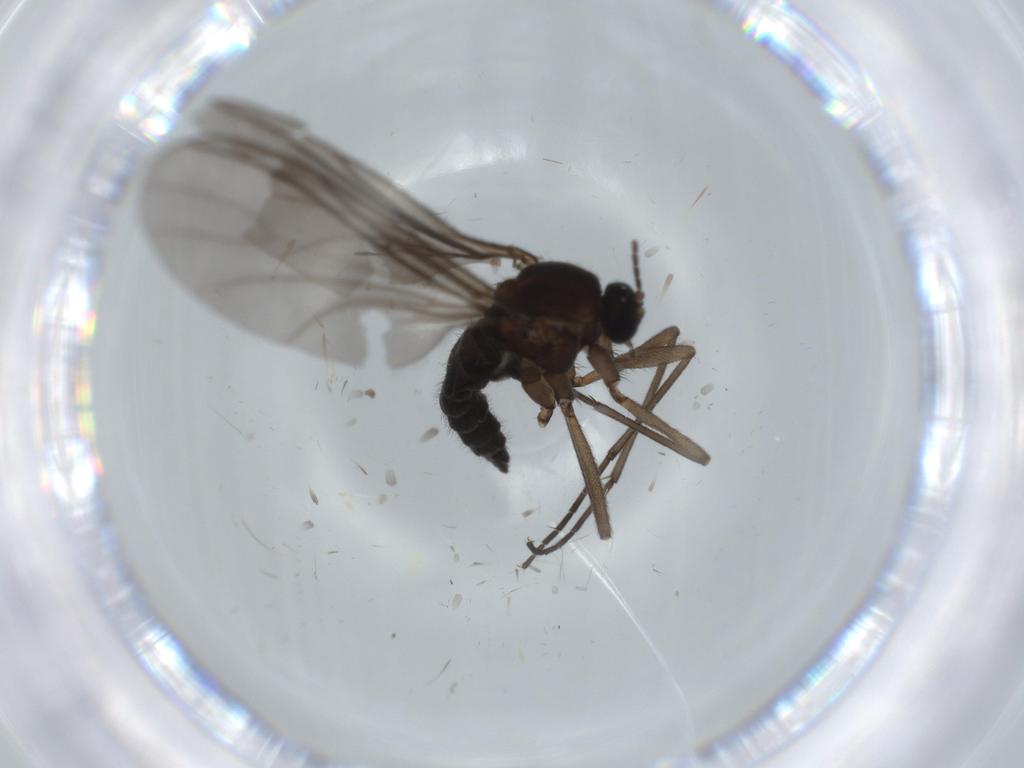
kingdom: Animalia
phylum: Arthropoda
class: Insecta
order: Diptera
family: Sciaridae
